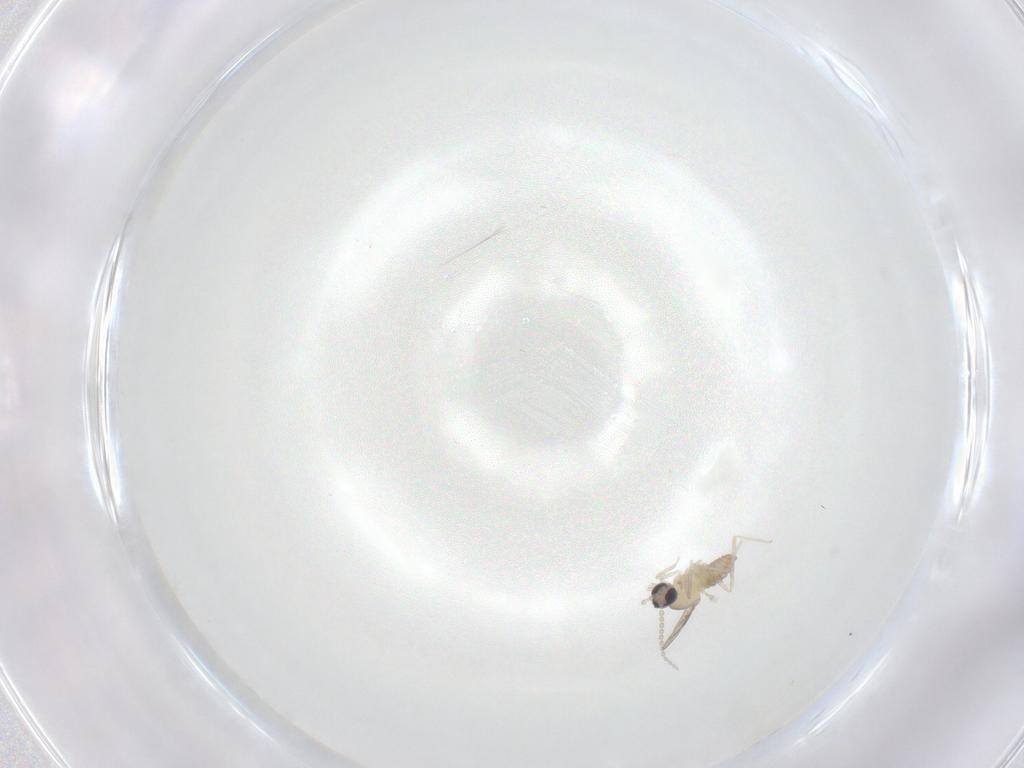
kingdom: Animalia
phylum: Arthropoda
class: Insecta
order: Diptera
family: Cecidomyiidae
